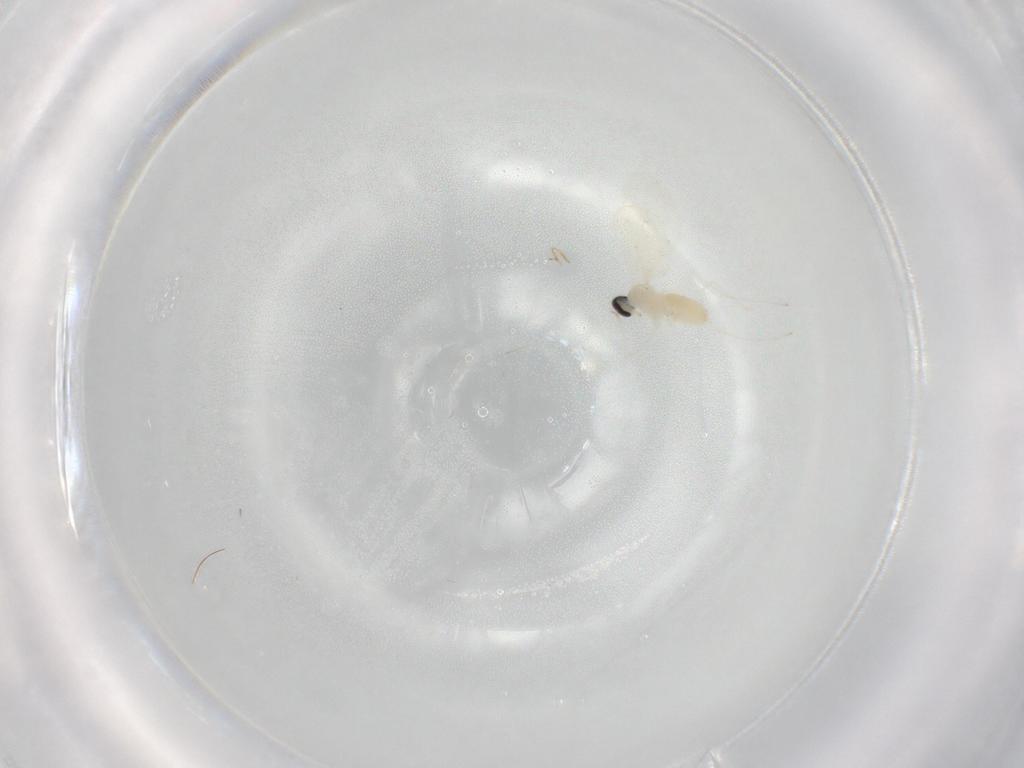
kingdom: Animalia
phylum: Arthropoda
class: Insecta
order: Diptera
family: Cecidomyiidae
